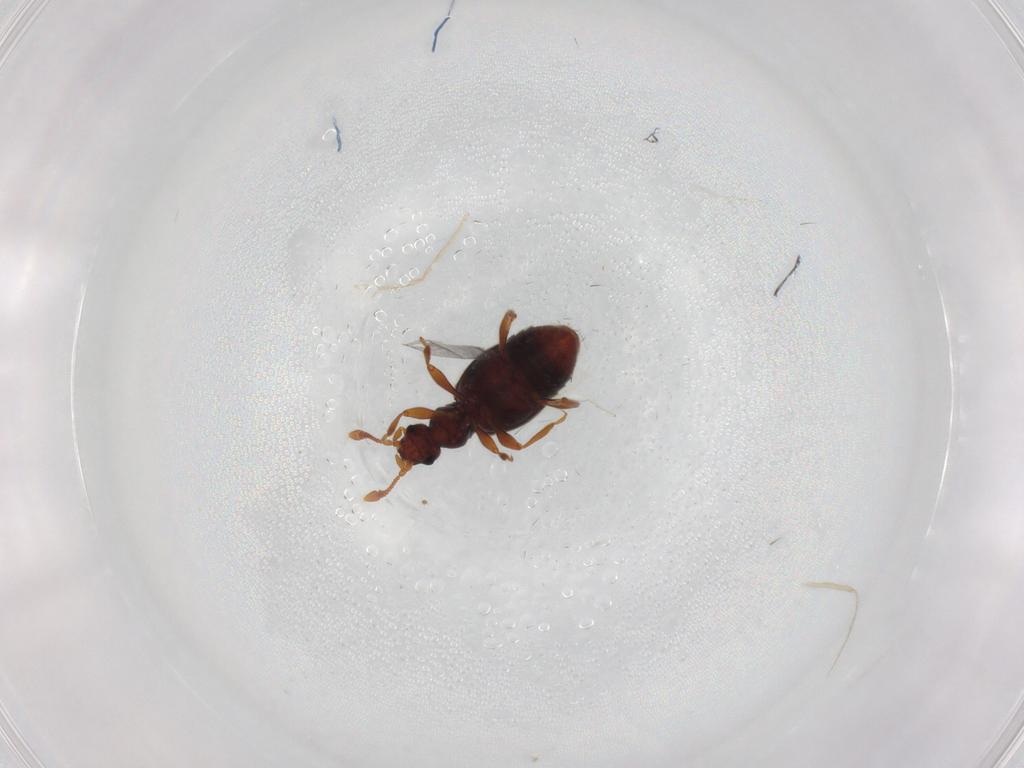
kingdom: Animalia
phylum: Arthropoda
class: Insecta
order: Coleoptera
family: Staphylinidae
